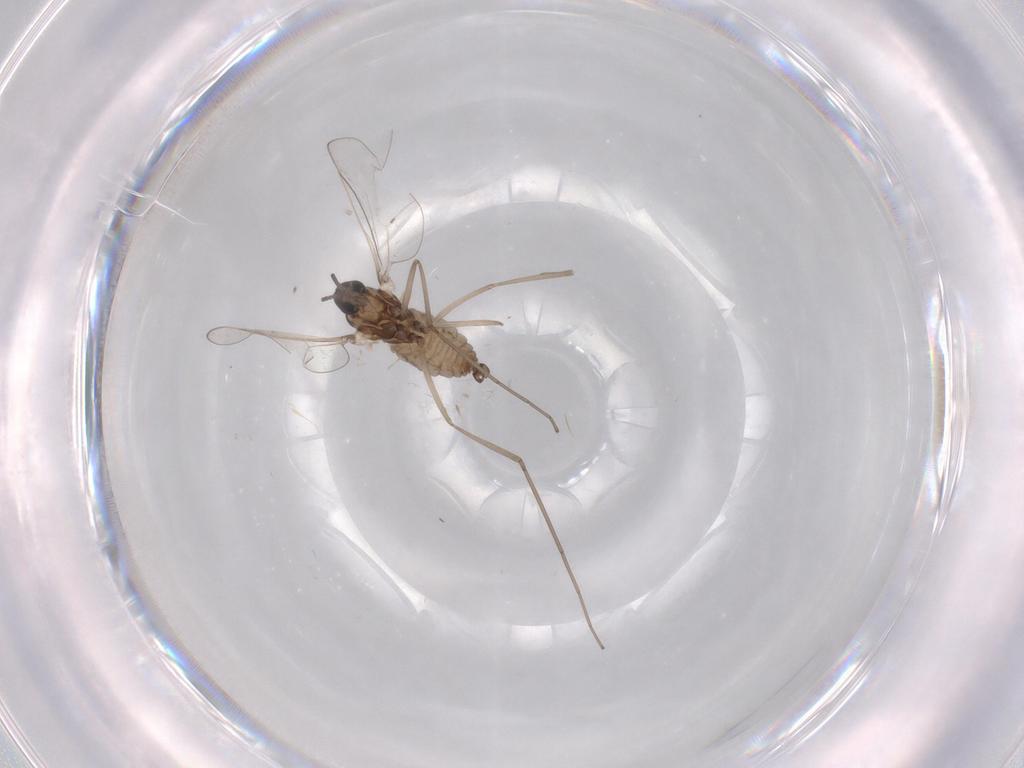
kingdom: Animalia
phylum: Arthropoda
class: Insecta
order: Diptera
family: Cecidomyiidae
